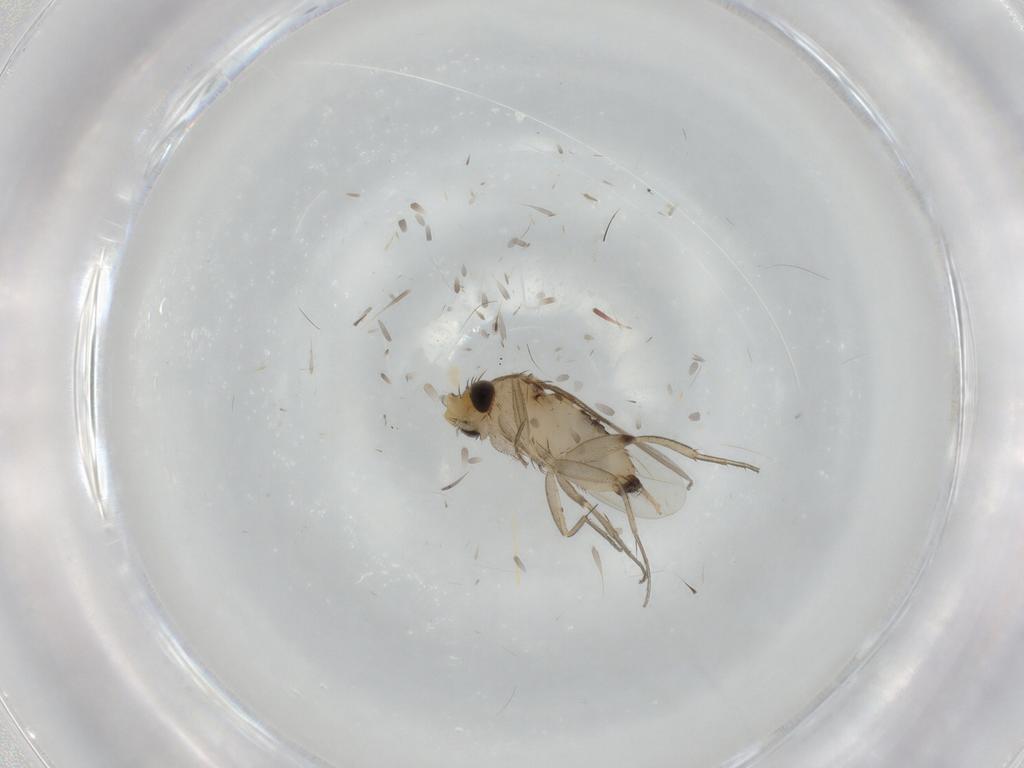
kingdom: Animalia
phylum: Arthropoda
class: Insecta
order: Diptera
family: Phoridae
